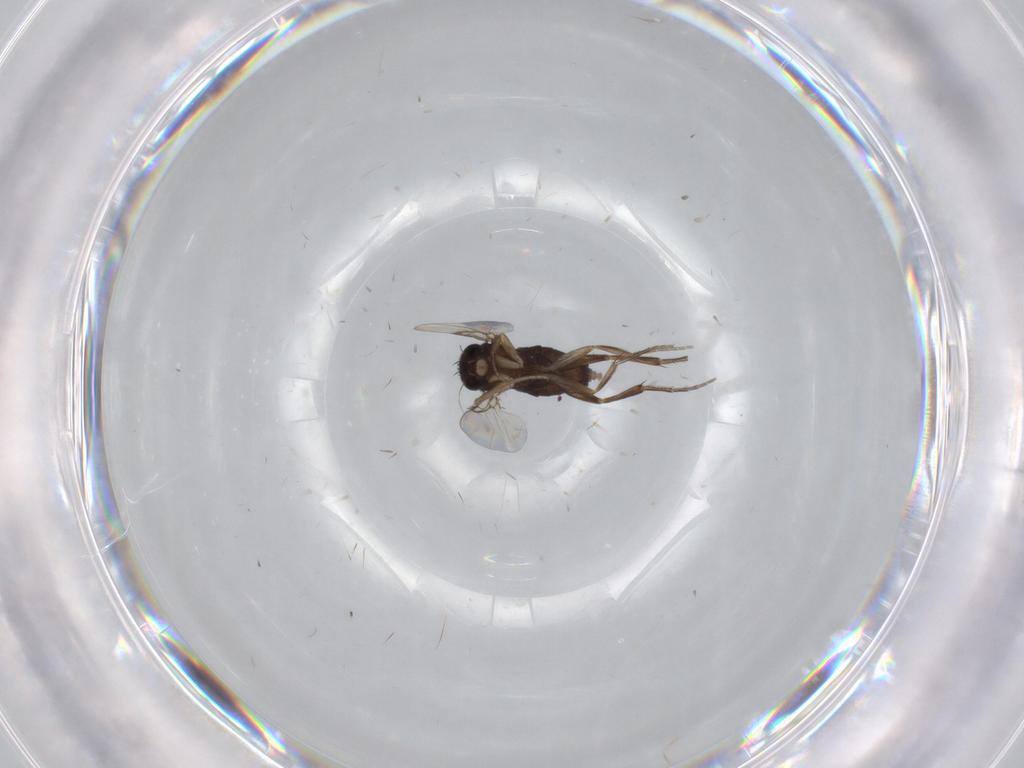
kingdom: Animalia
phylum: Arthropoda
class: Insecta
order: Diptera
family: Phoridae
